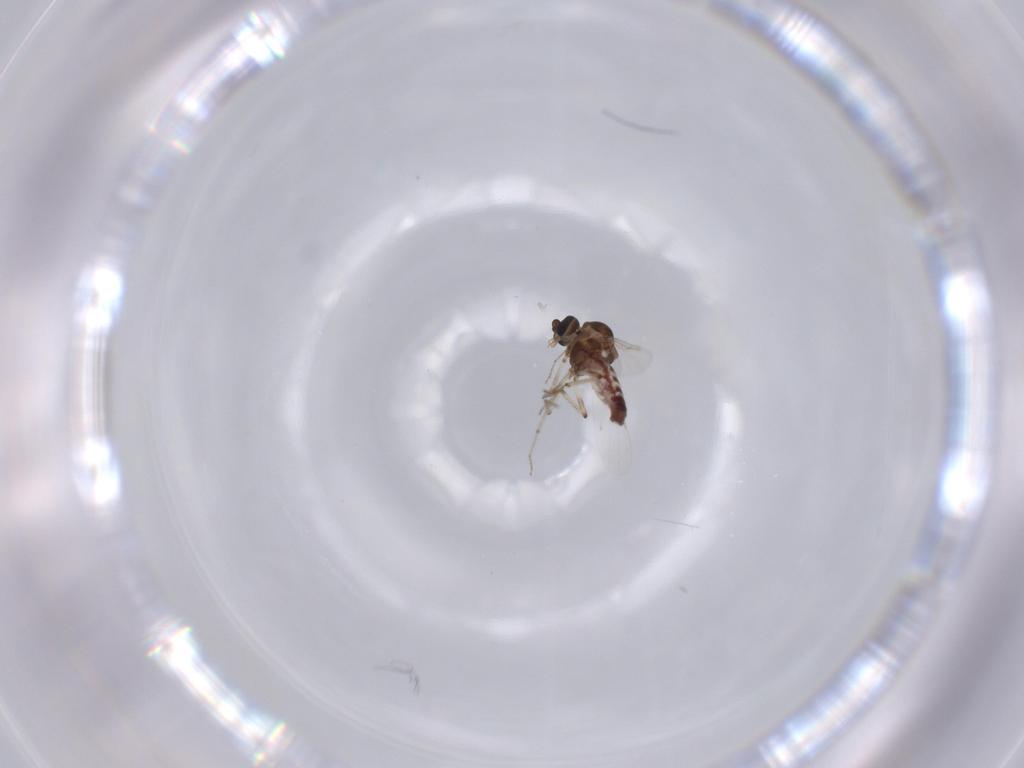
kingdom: Animalia
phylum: Arthropoda
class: Insecta
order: Diptera
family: Ceratopogonidae
